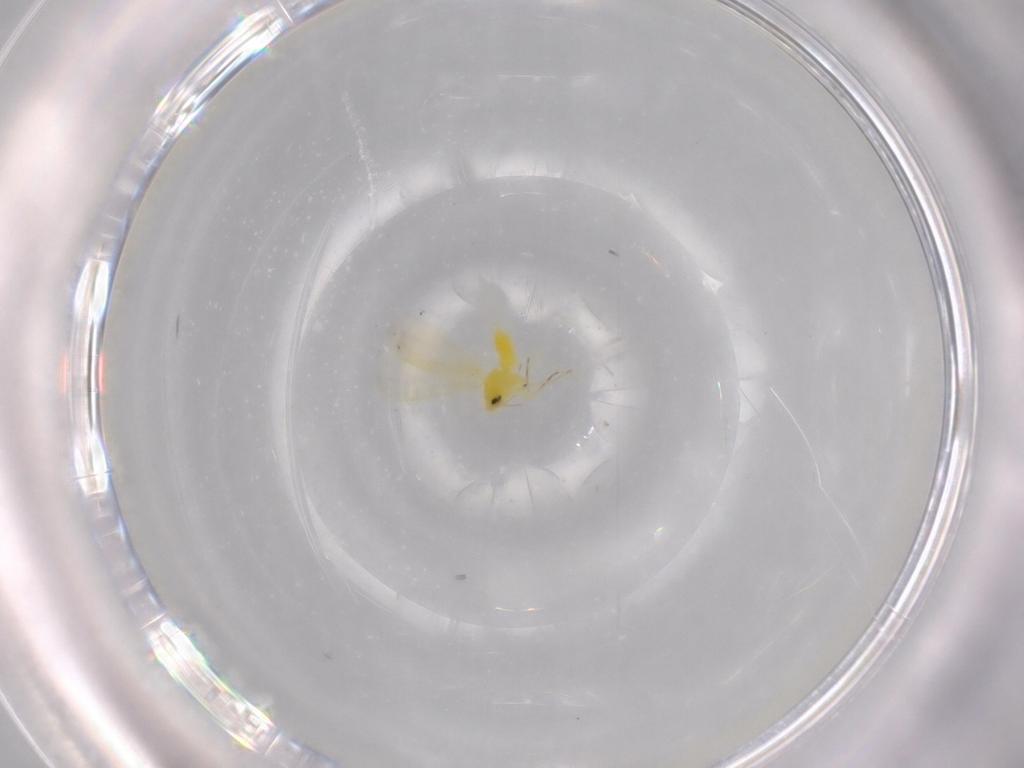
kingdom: Animalia
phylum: Arthropoda
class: Insecta
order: Hemiptera
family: Aleyrodidae
